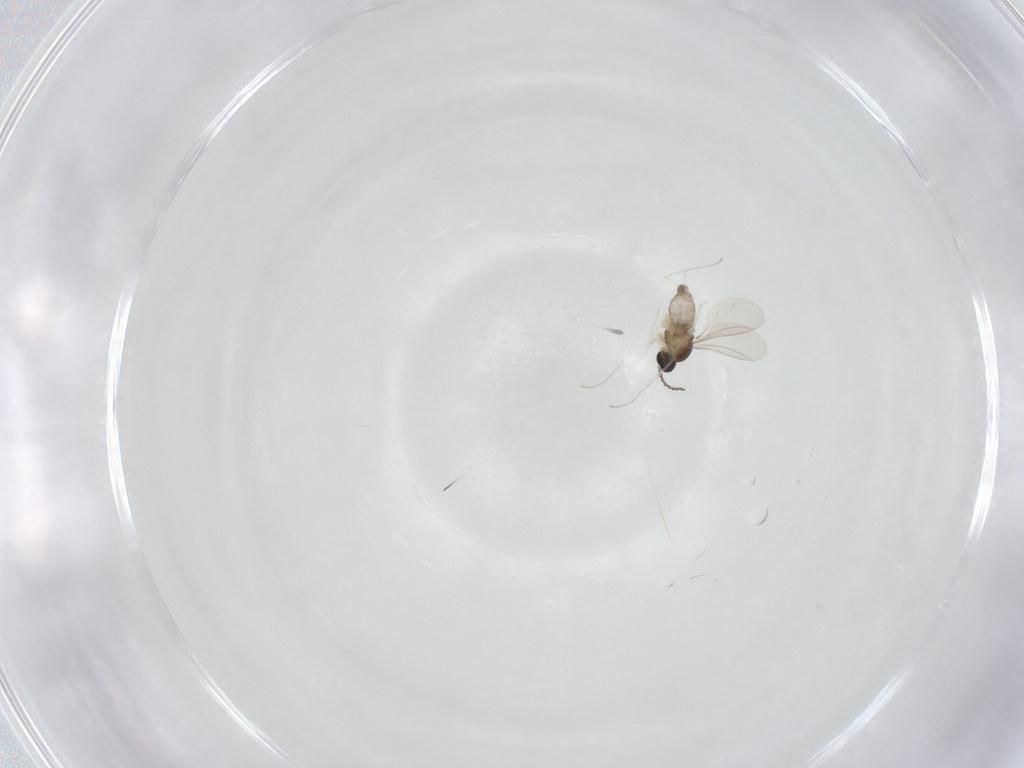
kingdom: Animalia
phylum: Arthropoda
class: Insecta
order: Diptera
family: Cecidomyiidae
